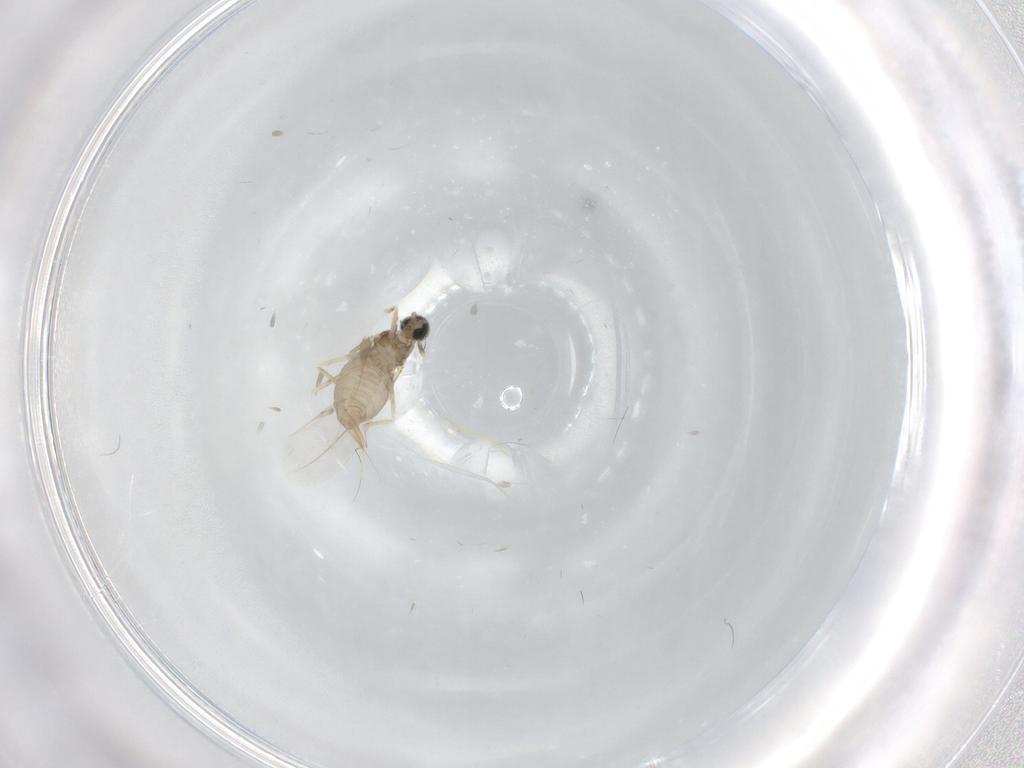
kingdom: Animalia
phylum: Arthropoda
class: Insecta
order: Diptera
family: Cecidomyiidae
